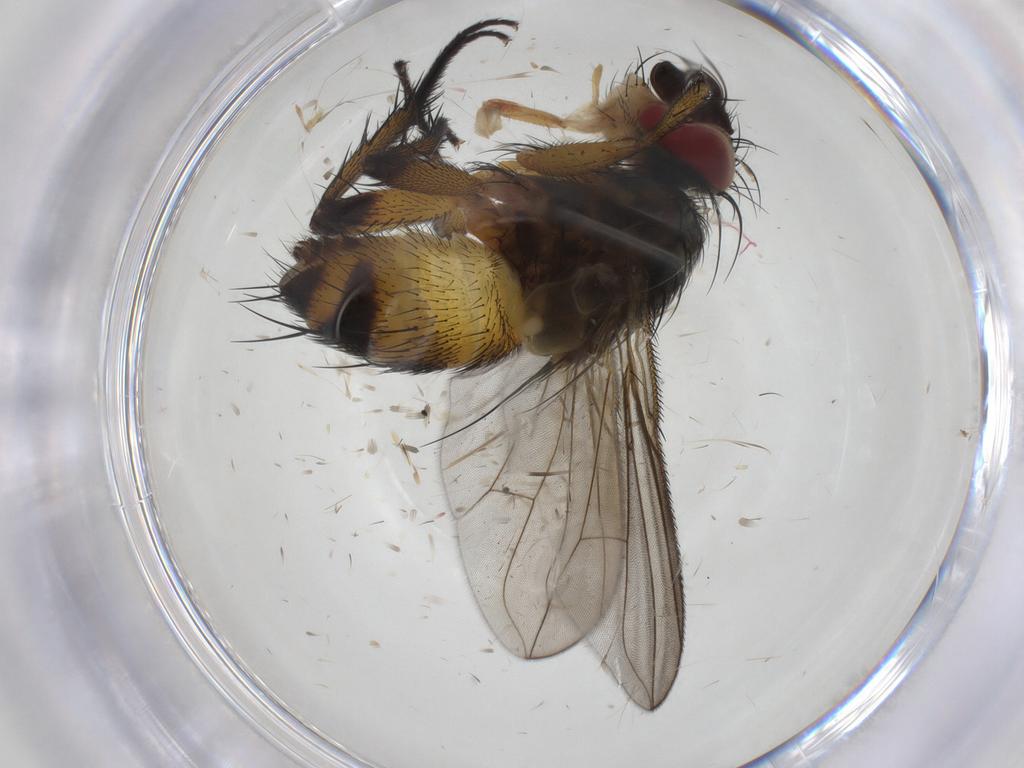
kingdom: Animalia
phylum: Arthropoda
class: Insecta
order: Diptera
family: Tachinidae
